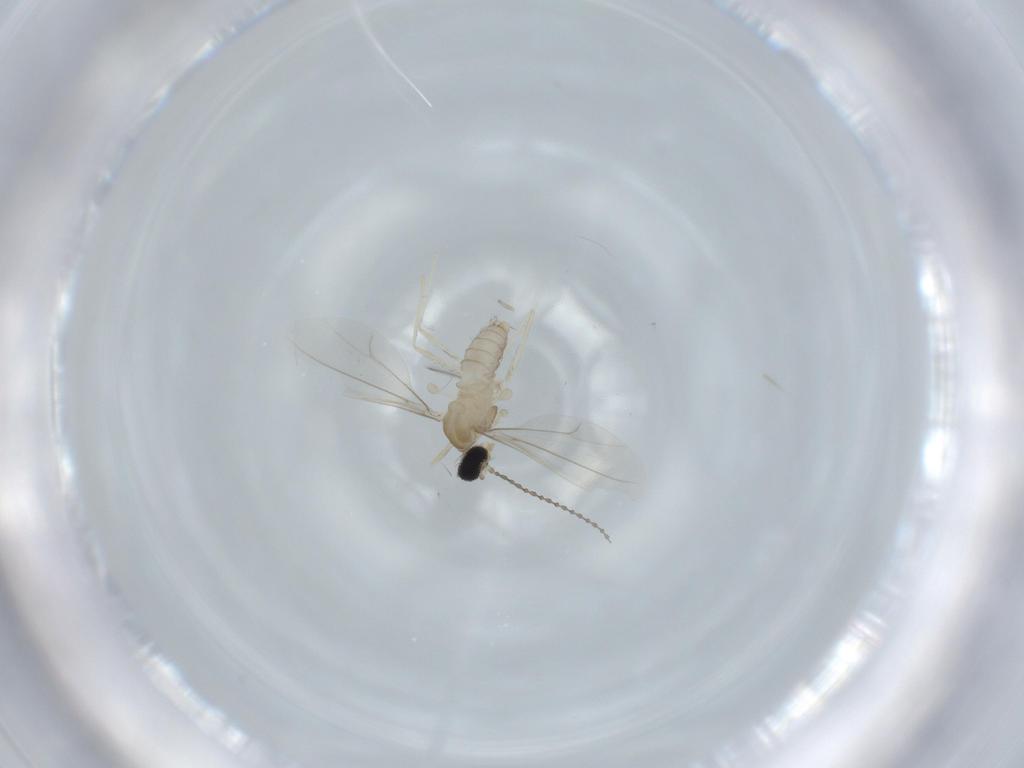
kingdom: Animalia
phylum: Arthropoda
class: Insecta
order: Diptera
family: Cecidomyiidae
